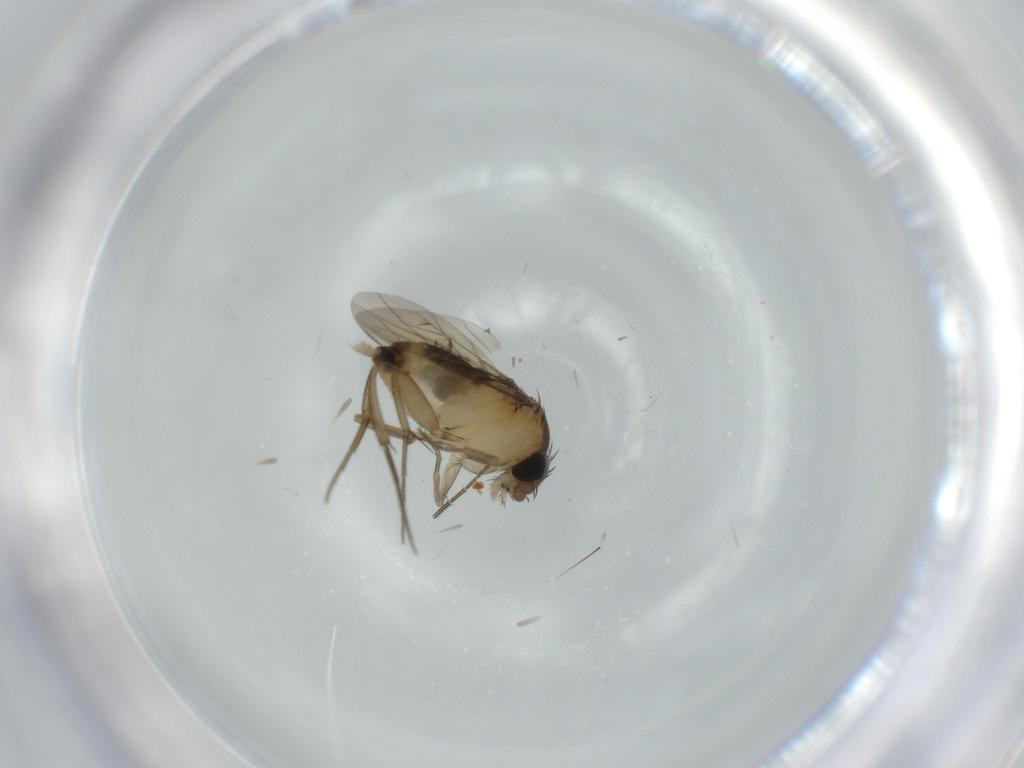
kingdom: Animalia
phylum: Arthropoda
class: Insecta
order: Diptera
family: Cecidomyiidae
